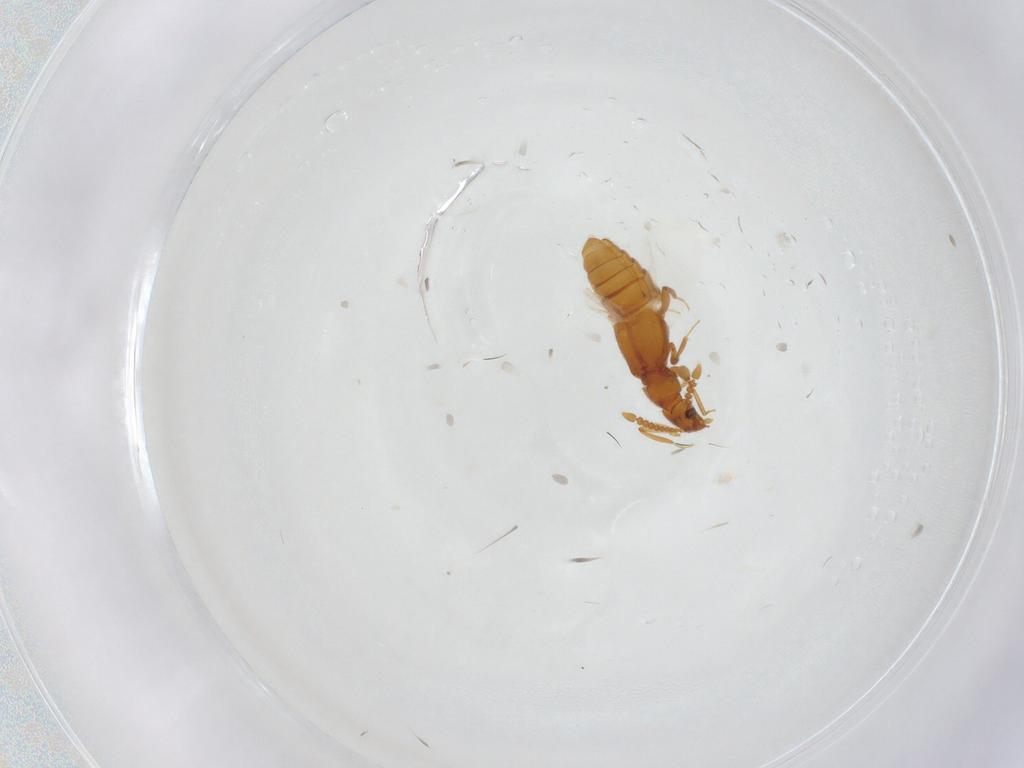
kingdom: Animalia
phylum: Arthropoda
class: Insecta
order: Coleoptera
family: Staphylinidae
